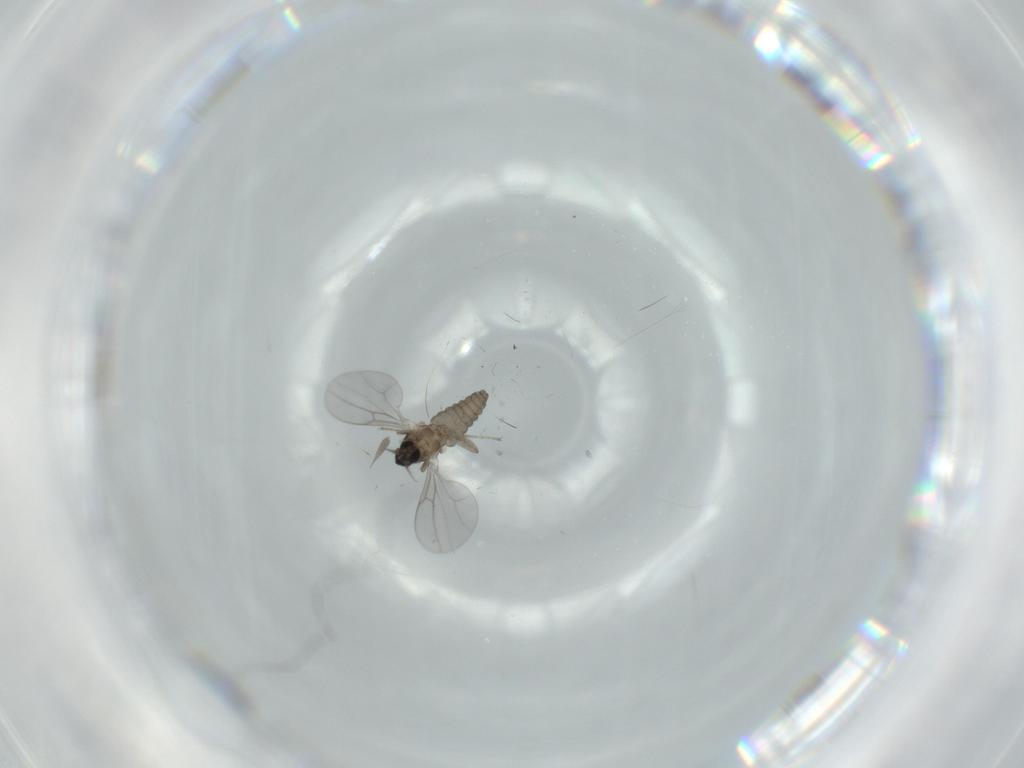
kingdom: Animalia
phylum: Arthropoda
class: Insecta
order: Diptera
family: Cecidomyiidae
